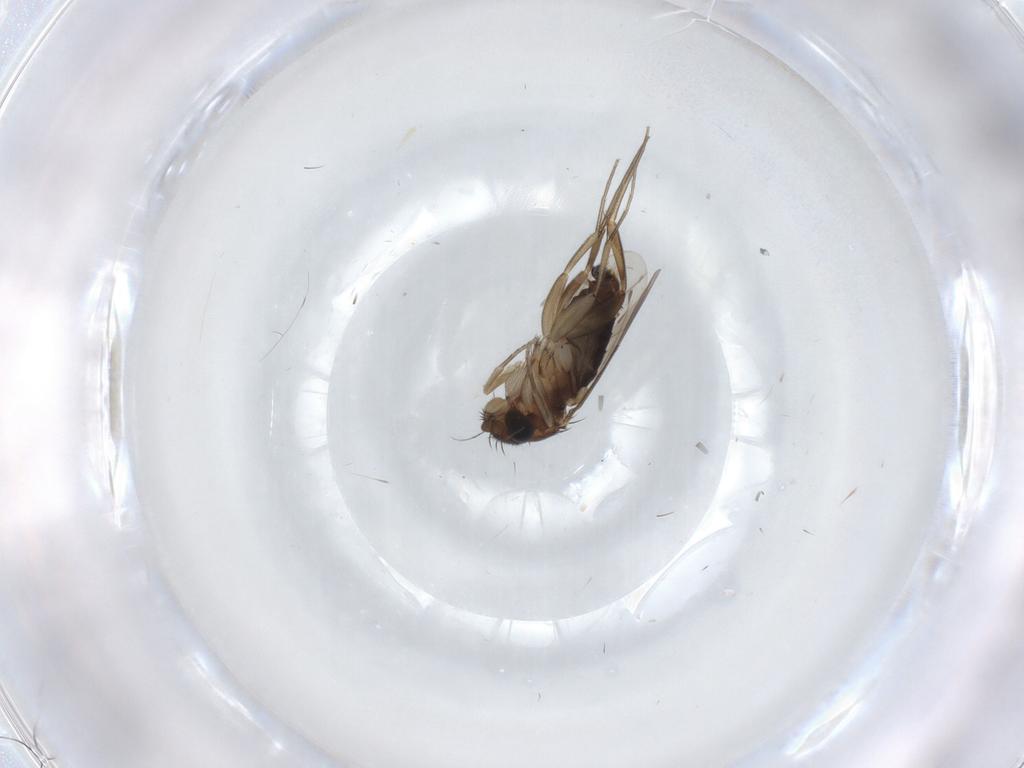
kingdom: Animalia
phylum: Arthropoda
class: Insecta
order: Diptera
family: Phoridae
